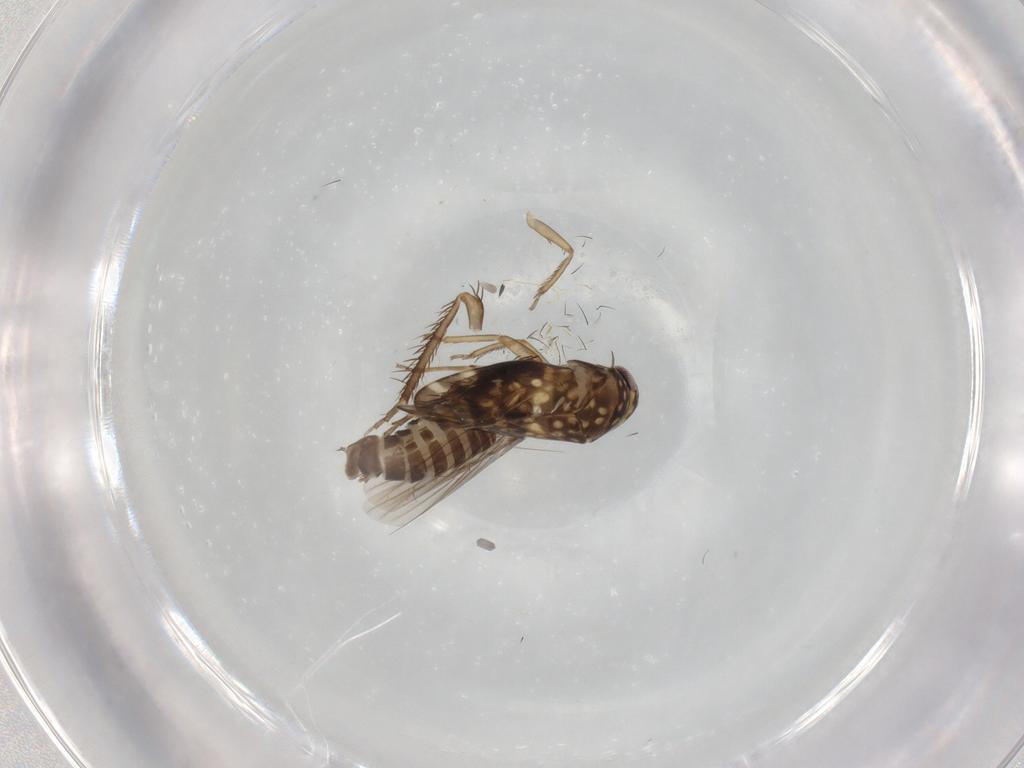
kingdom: Animalia
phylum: Arthropoda
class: Insecta
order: Hemiptera
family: Cicadellidae
